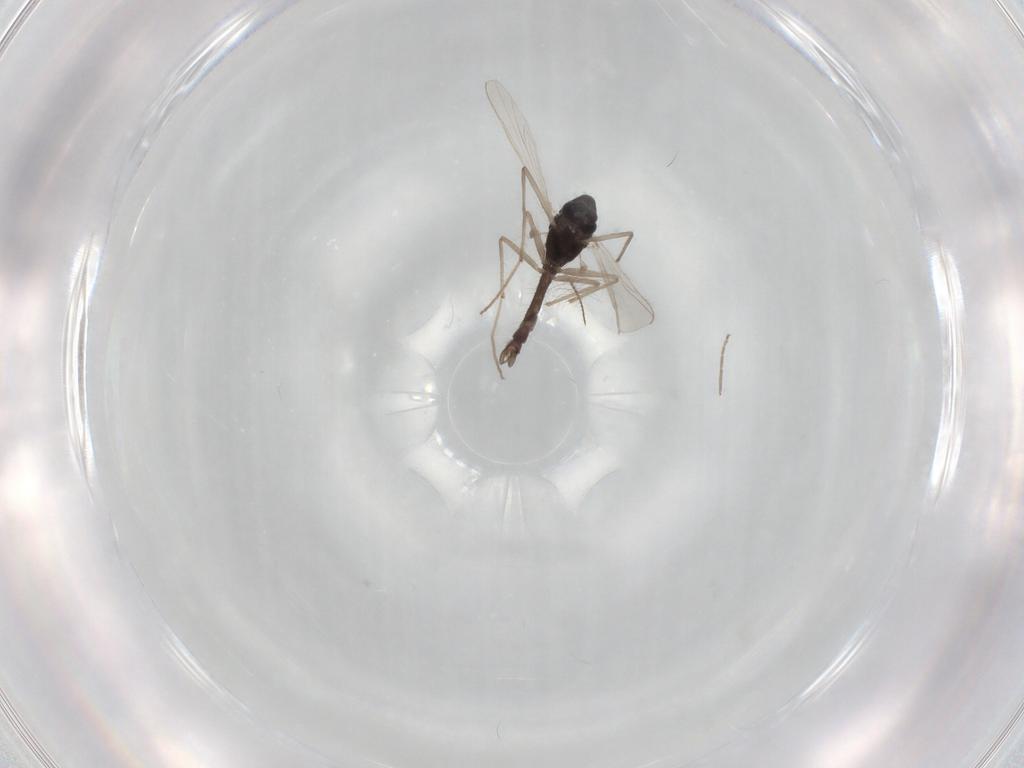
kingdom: Animalia
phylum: Arthropoda
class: Insecta
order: Diptera
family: Chironomidae
